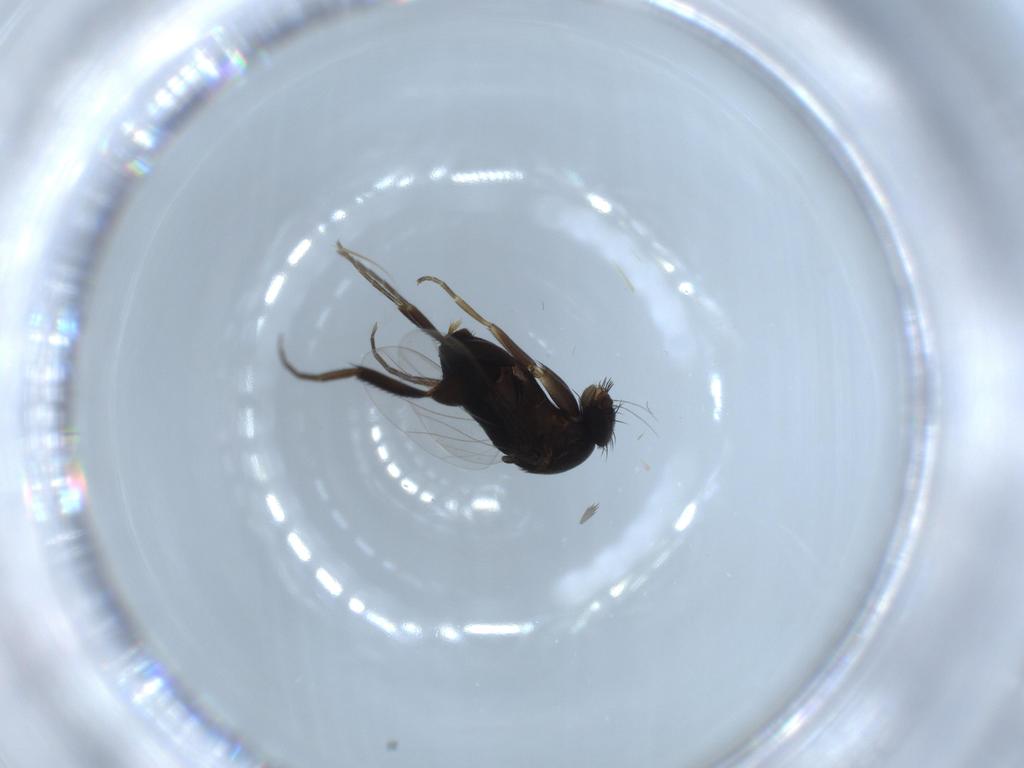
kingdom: Animalia
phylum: Arthropoda
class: Insecta
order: Diptera
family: Phoridae
